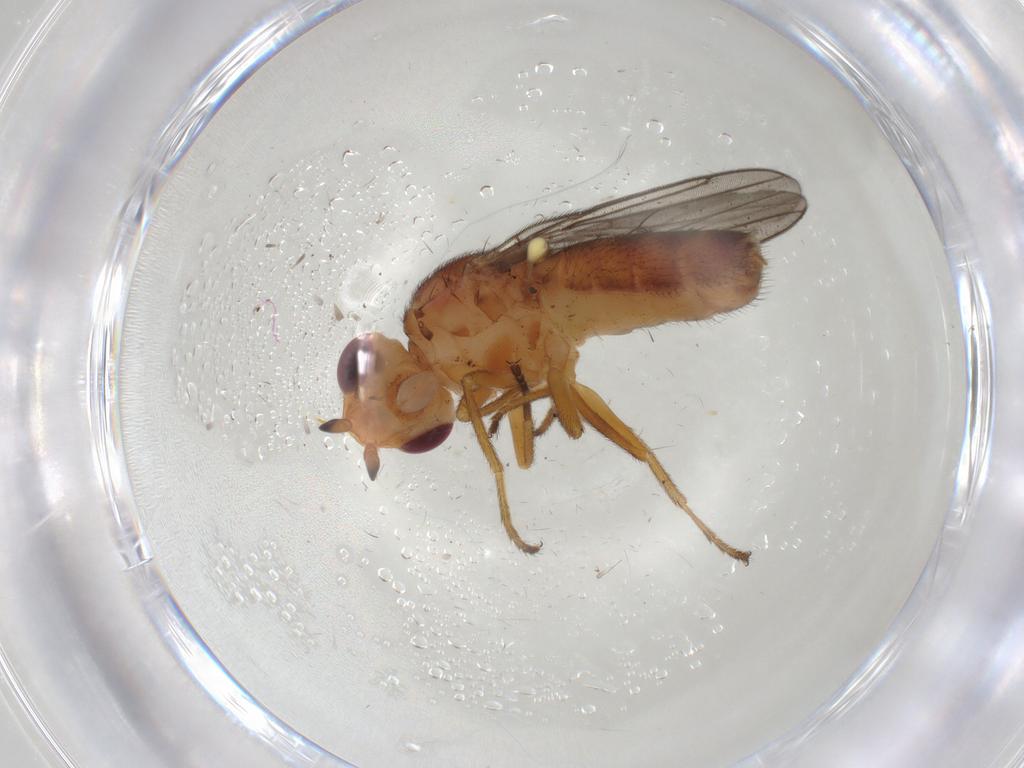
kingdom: Animalia
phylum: Arthropoda
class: Insecta
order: Diptera
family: Chloropidae
